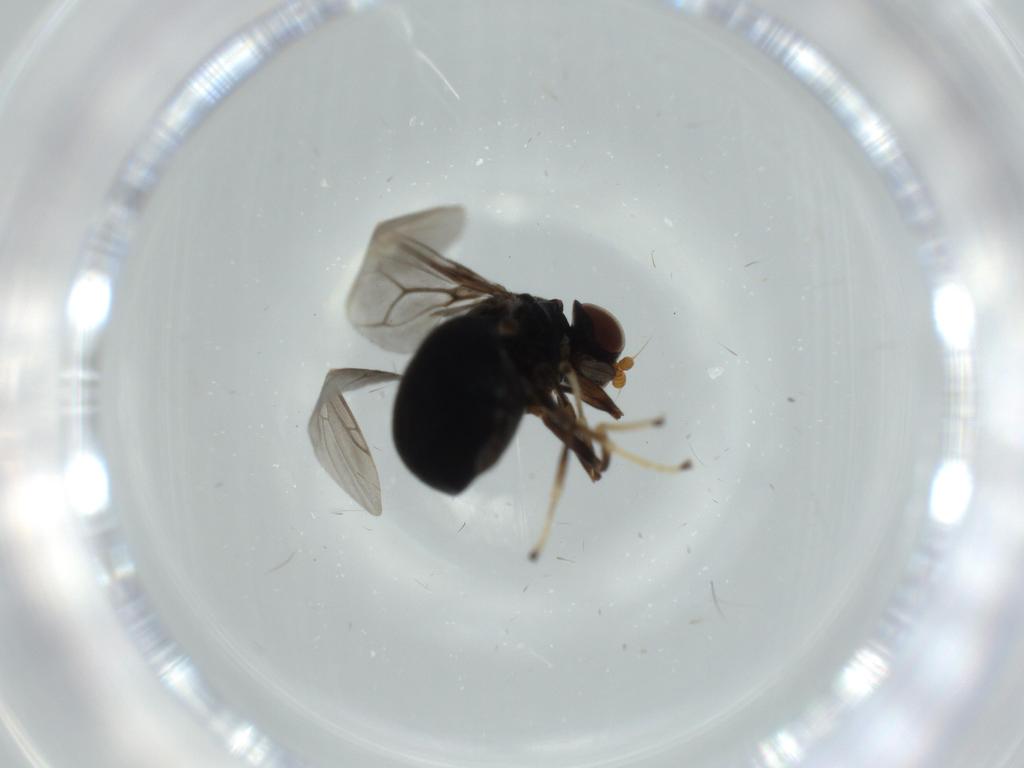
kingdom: Animalia
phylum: Arthropoda
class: Insecta
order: Diptera
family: Stratiomyidae
